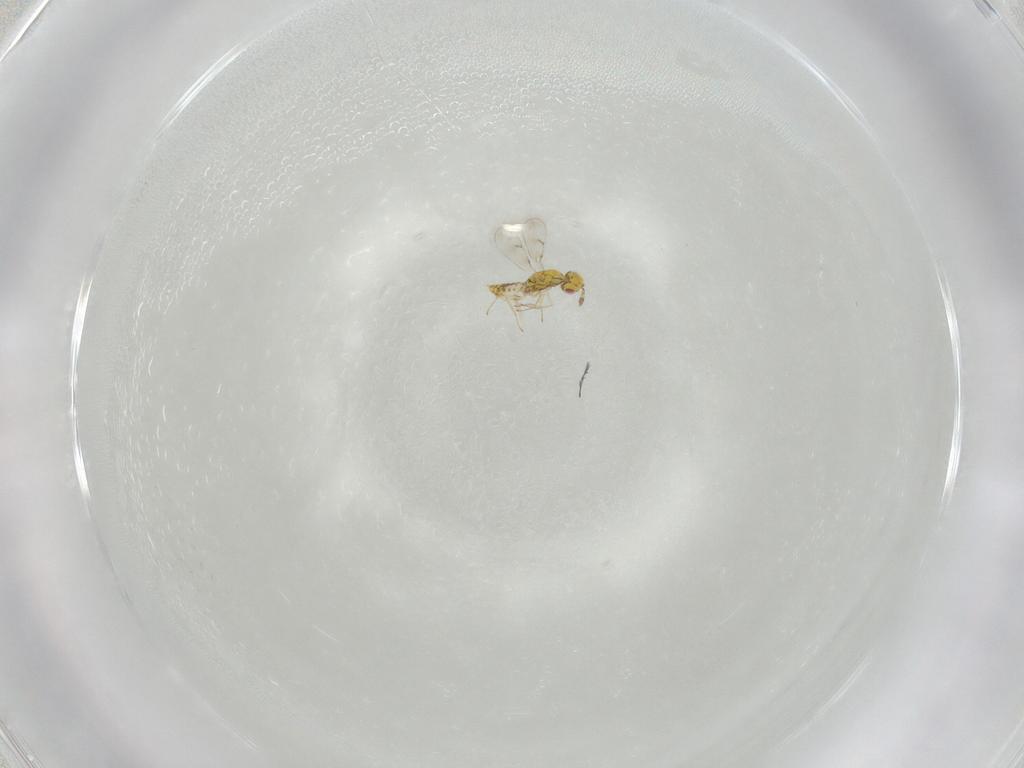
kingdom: Animalia
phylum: Arthropoda
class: Insecta
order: Hymenoptera
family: Eulophidae
